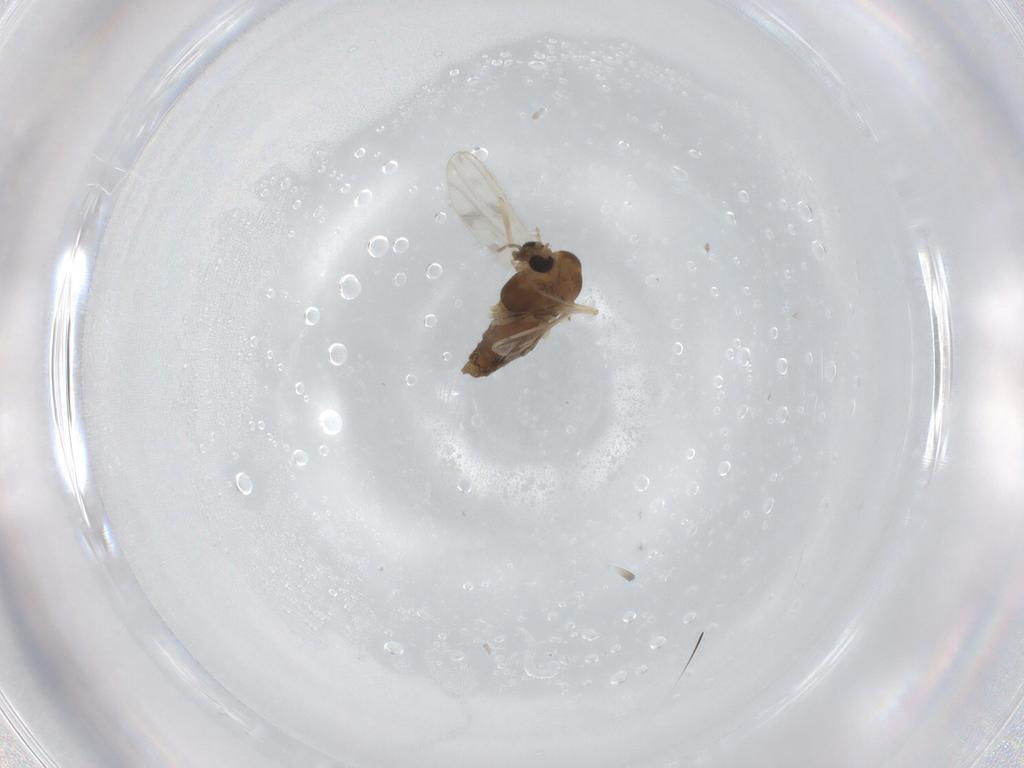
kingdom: Animalia
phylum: Arthropoda
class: Insecta
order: Diptera
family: Chironomidae
